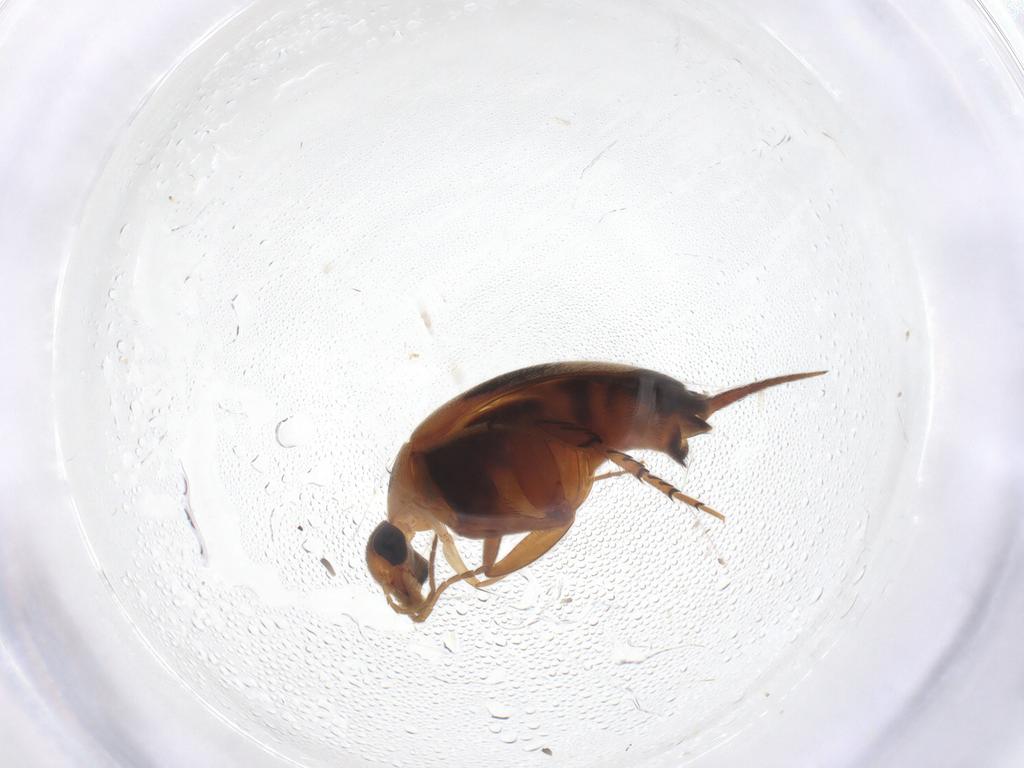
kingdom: Animalia
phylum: Arthropoda
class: Insecta
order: Coleoptera
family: Mordellidae
